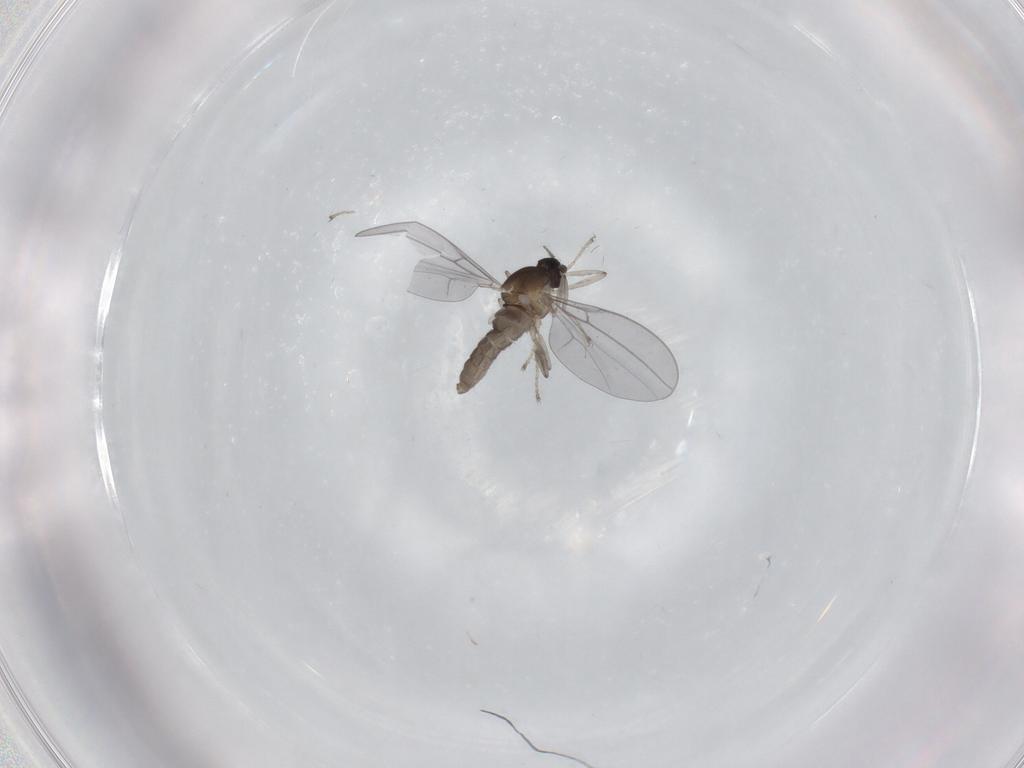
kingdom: Animalia
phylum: Arthropoda
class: Insecta
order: Diptera
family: Cecidomyiidae
